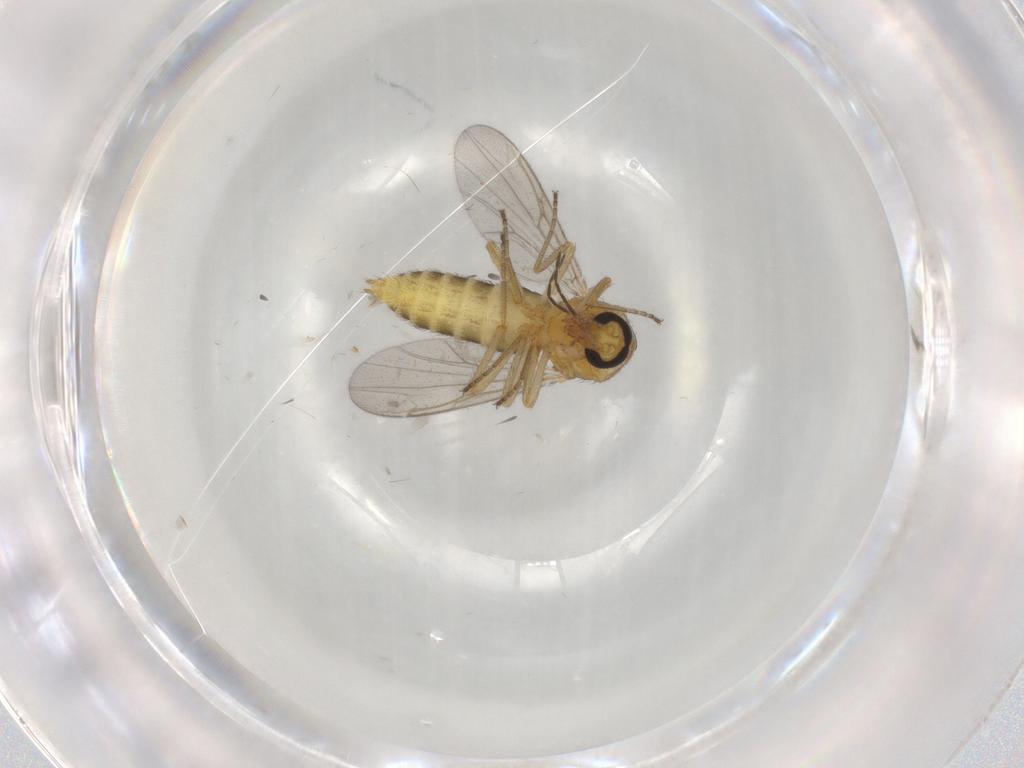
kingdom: Animalia
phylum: Arthropoda
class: Insecta
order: Diptera
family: Ceratopogonidae
